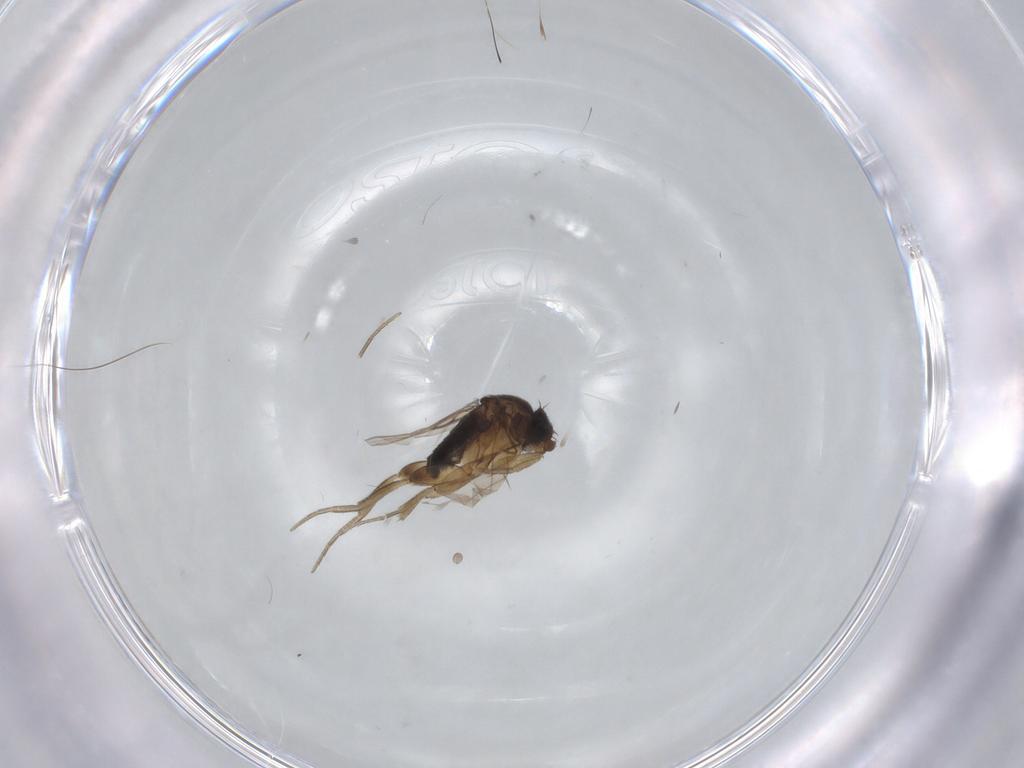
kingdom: Animalia
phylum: Arthropoda
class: Insecta
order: Diptera
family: Phoridae
